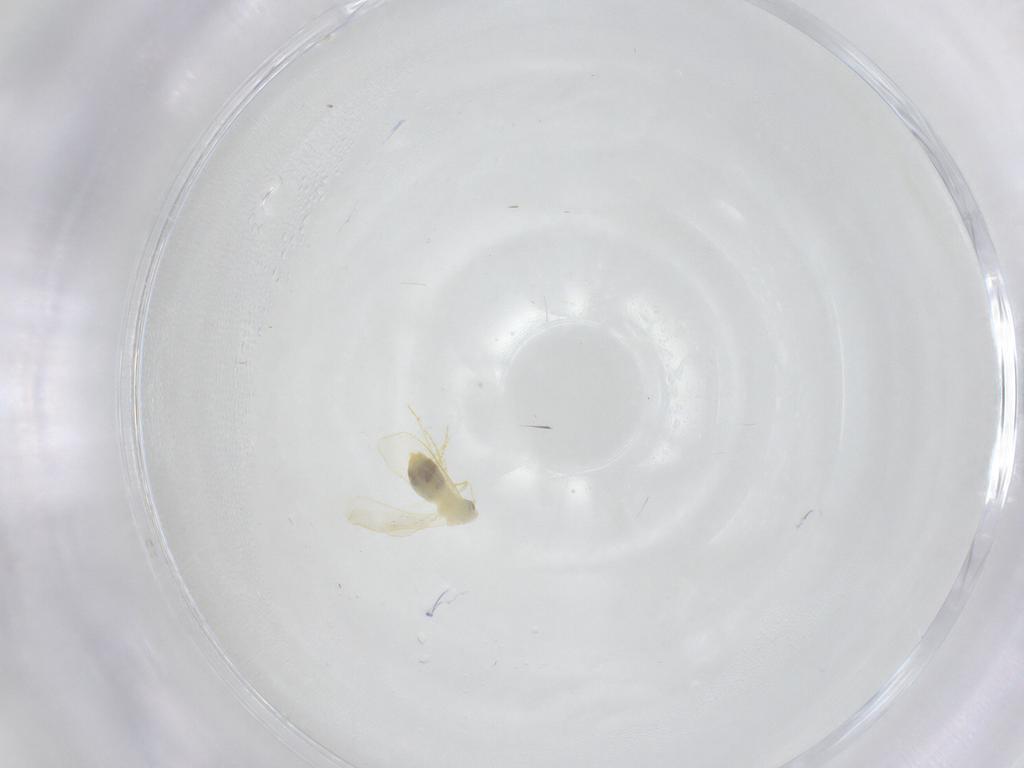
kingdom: Animalia
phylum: Arthropoda
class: Insecta
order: Hemiptera
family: Aleyrodidae
